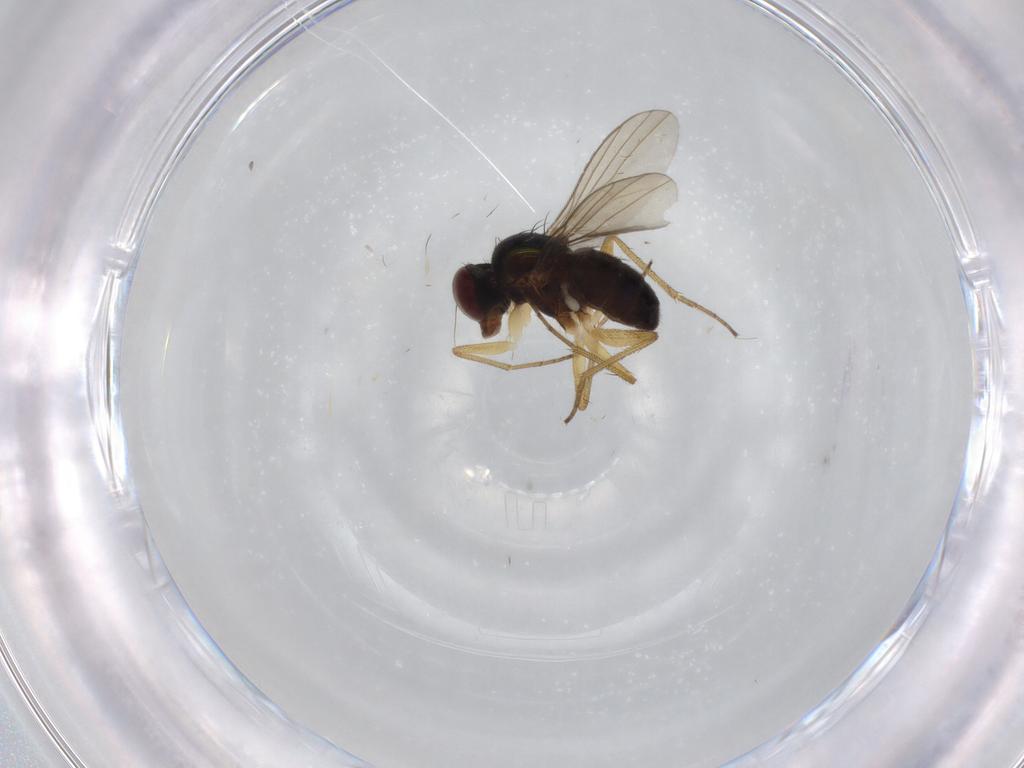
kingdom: Animalia
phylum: Arthropoda
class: Insecta
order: Diptera
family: Dolichopodidae
